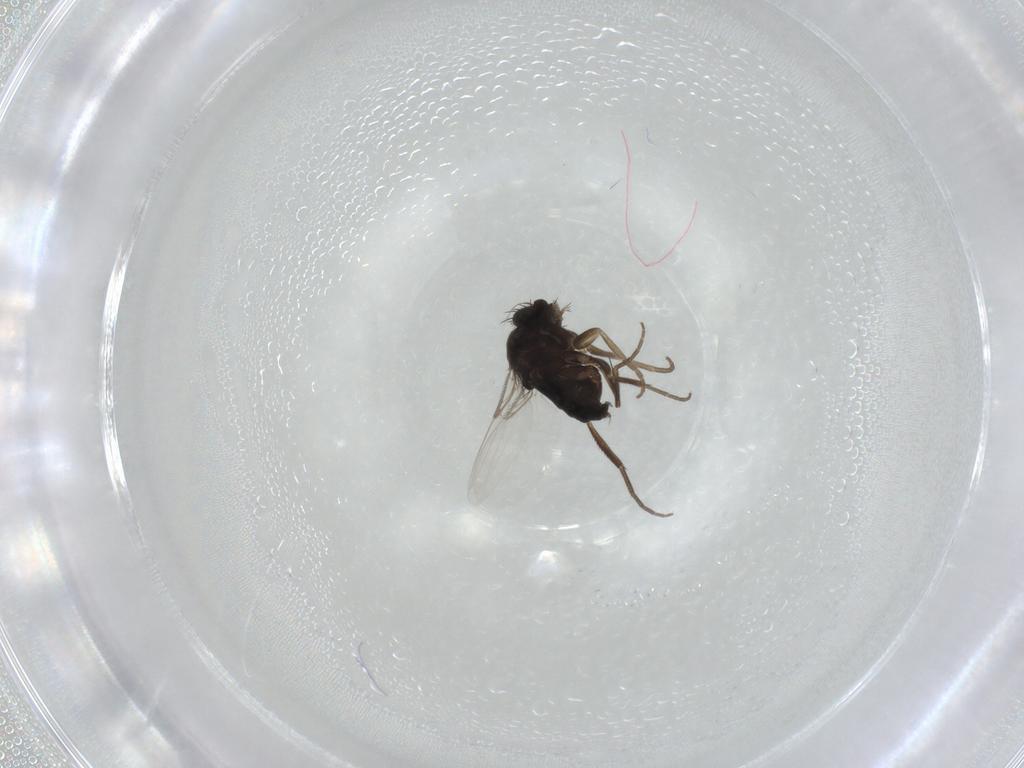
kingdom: Animalia
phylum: Arthropoda
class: Insecta
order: Diptera
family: Phoridae
